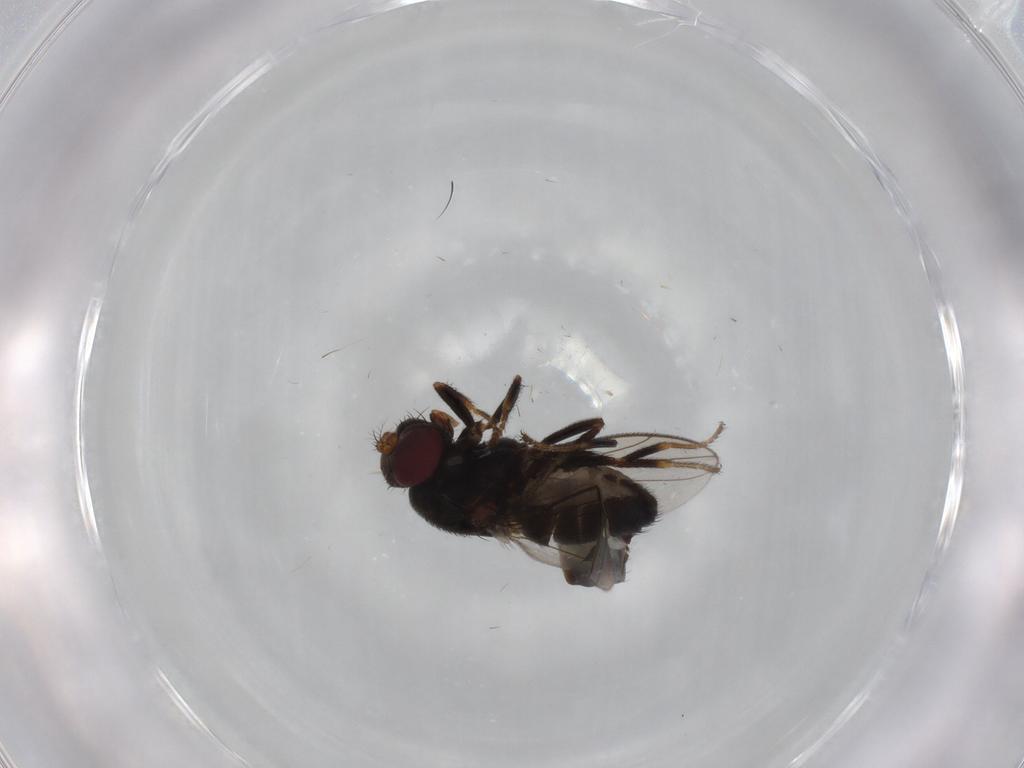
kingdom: Animalia
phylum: Arthropoda
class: Insecta
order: Diptera
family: Ephydridae
